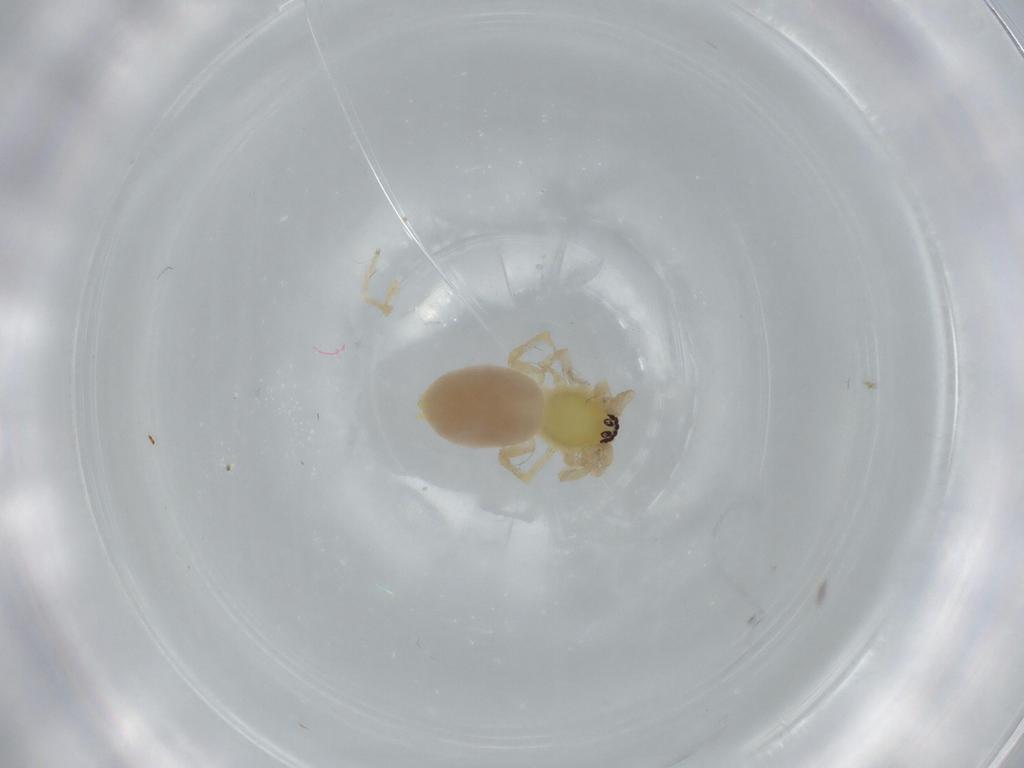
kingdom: Animalia
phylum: Arthropoda
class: Arachnida
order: Araneae
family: Anyphaenidae
